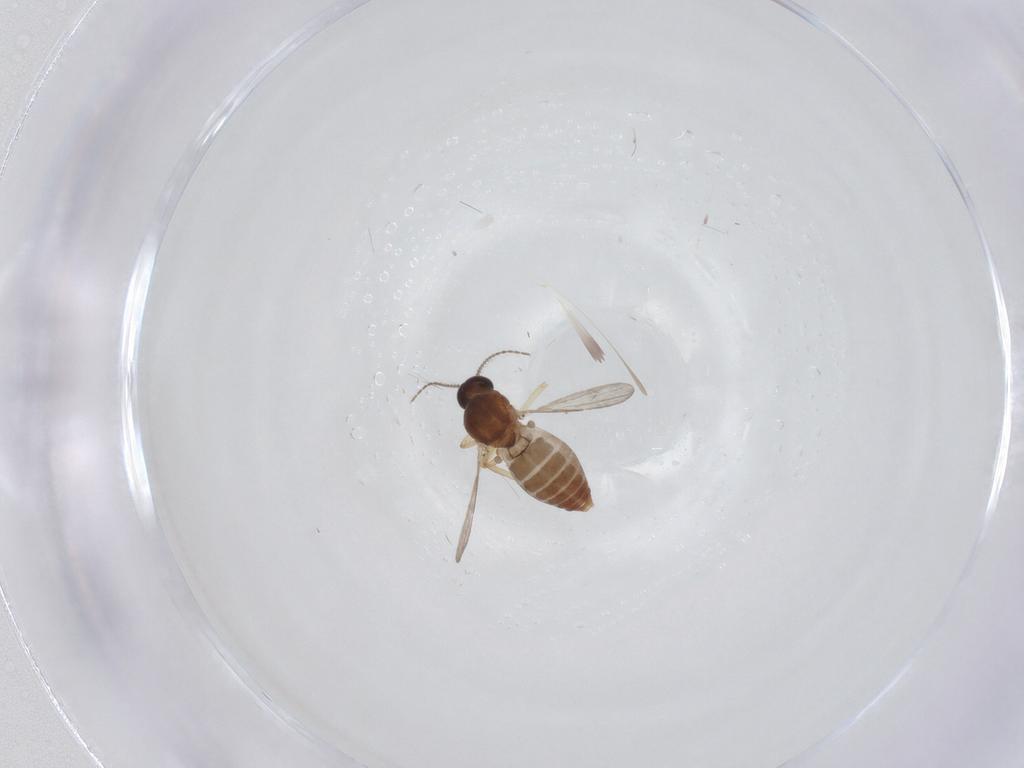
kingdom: Animalia
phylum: Arthropoda
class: Insecta
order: Diptera
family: Ceratopogonidae
